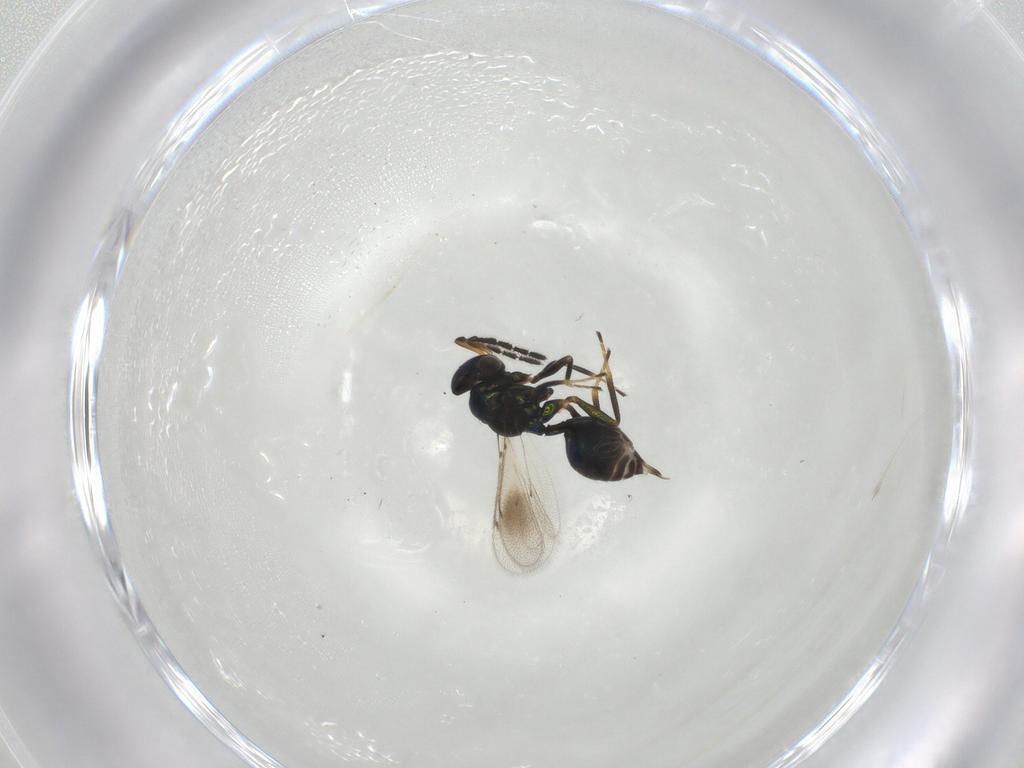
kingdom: Animalia
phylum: Arthropoda
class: Insecta
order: Hymenoptera
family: Eulophidae
